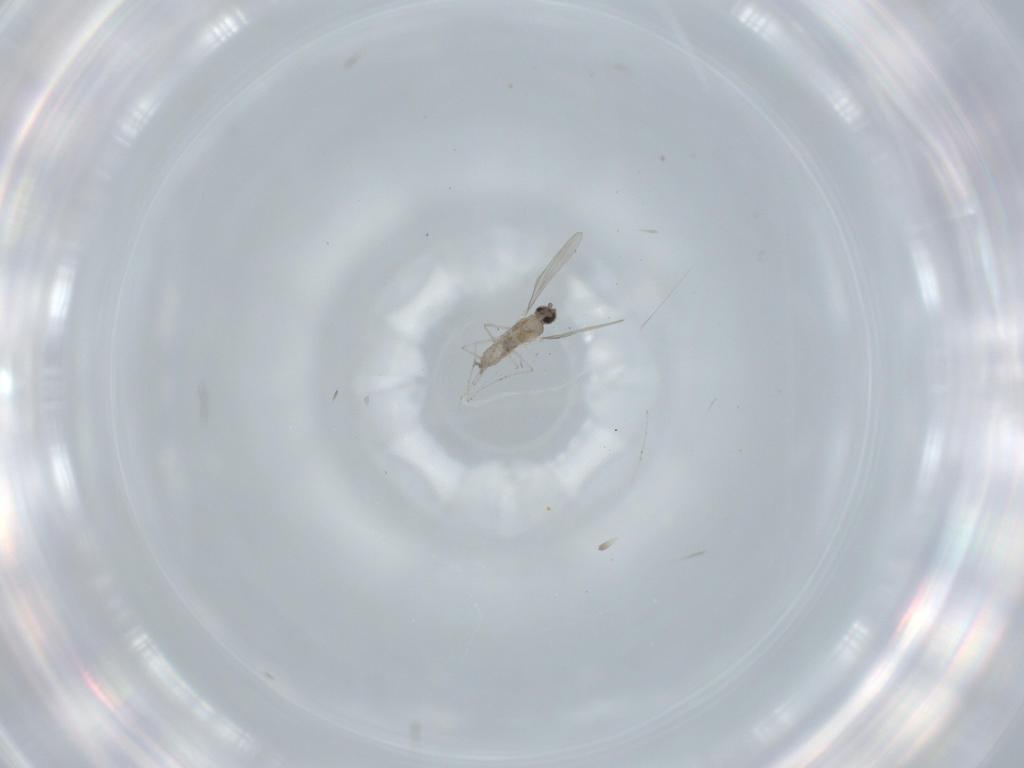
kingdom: Animalia
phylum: Arthropoda
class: Insecta
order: Diptera
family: Cecidomyiidae
